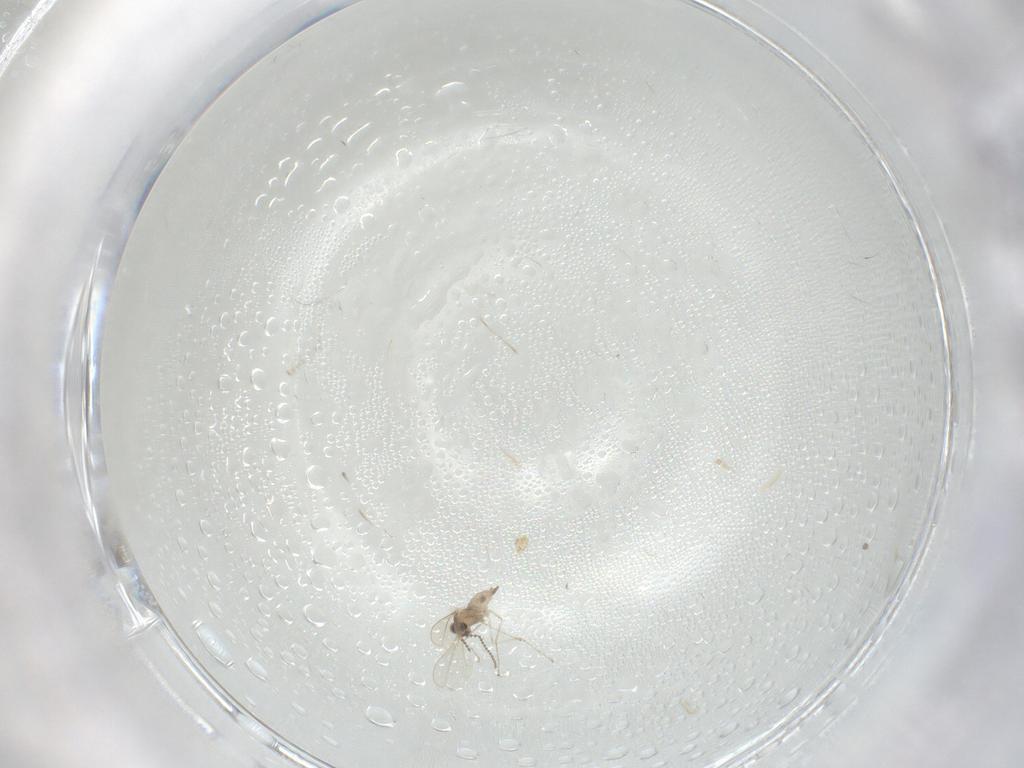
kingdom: Animalia
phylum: Arthropoda
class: Insecta
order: Diptera
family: Cecidomyiidae
